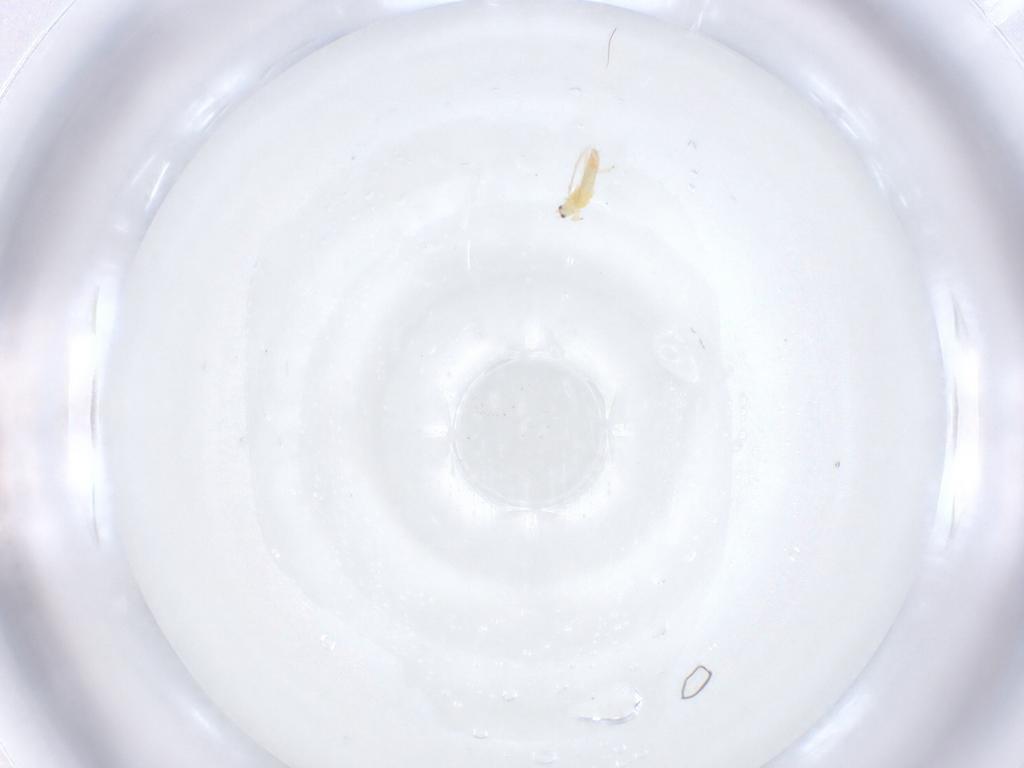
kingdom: Animalia
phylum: Arthropoda
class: Insecta
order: Thysanoptera
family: Thripidae
